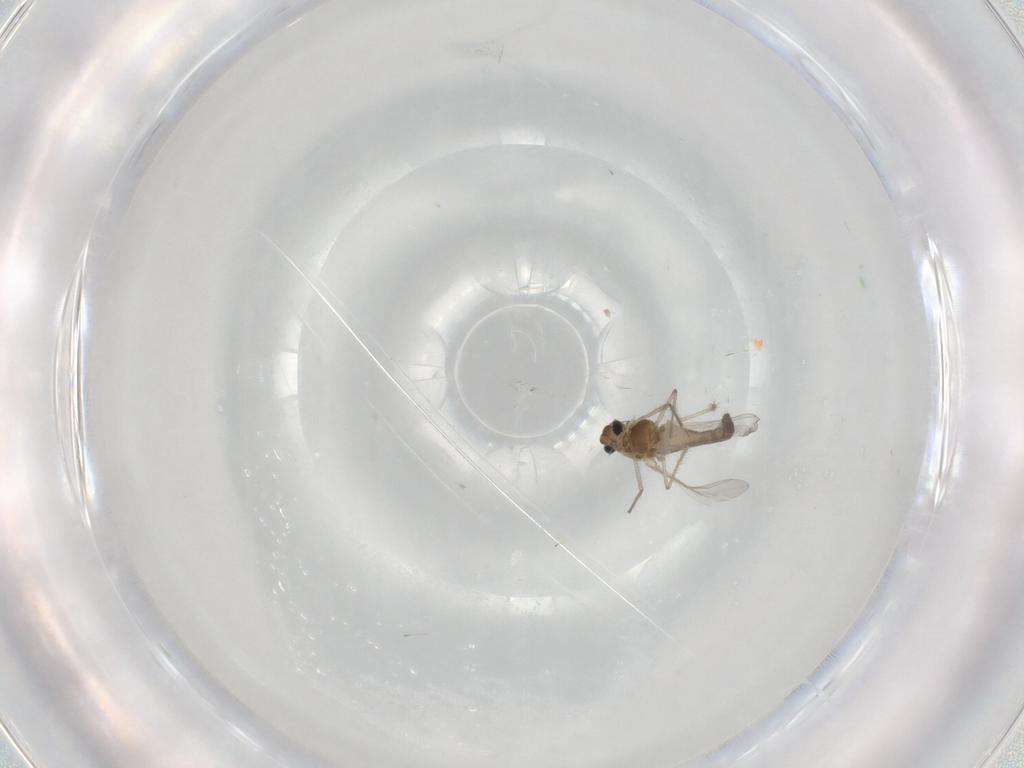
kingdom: Animalia
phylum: Arthropoda
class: Insecta
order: Diptera
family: Chironomidae
